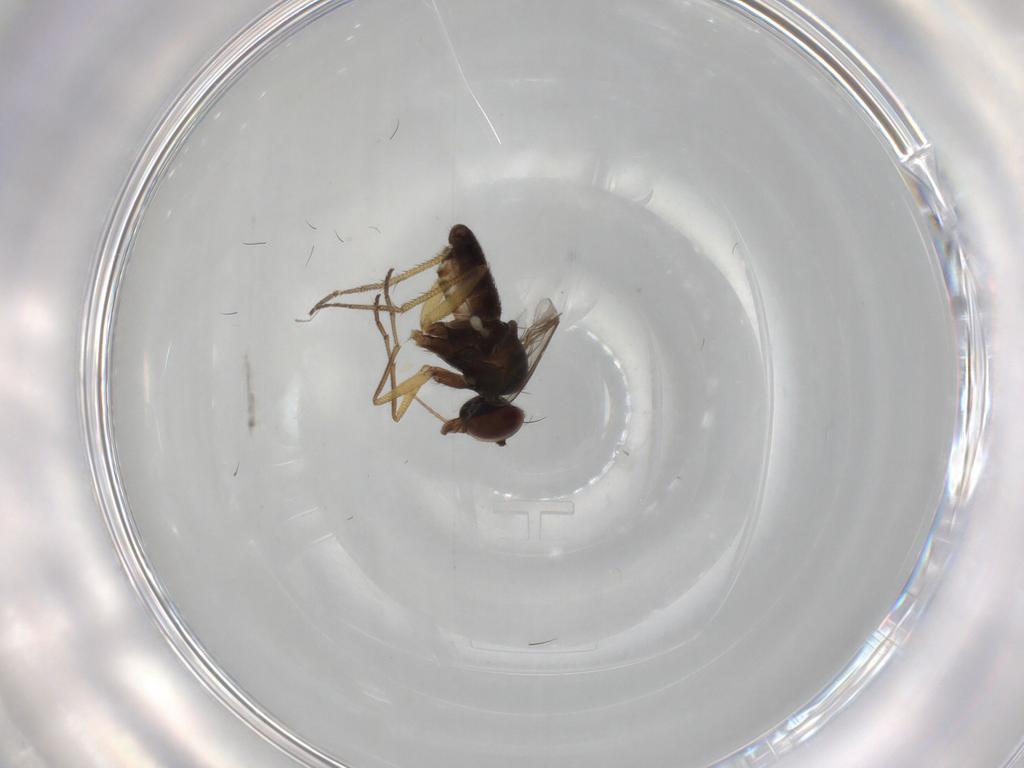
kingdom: Animalia
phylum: Arthropoda
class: Insecta
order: Diptera
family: Dolichopodidae
